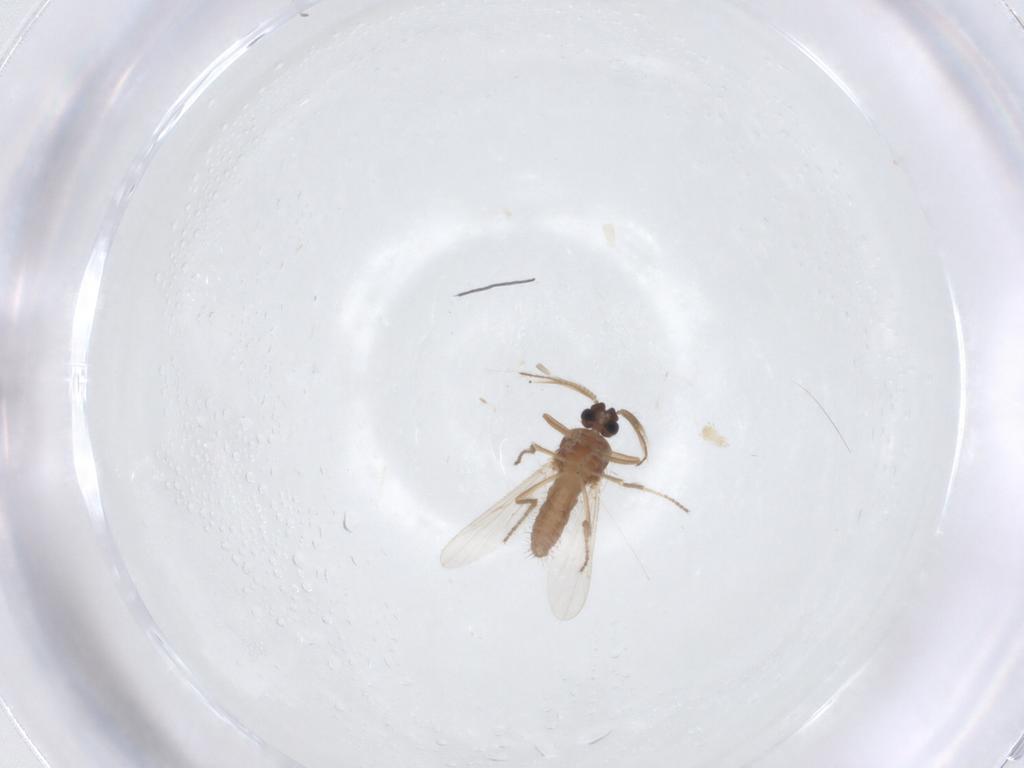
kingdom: Animalia
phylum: Arthropoda
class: Insecta
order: Diptera
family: Ceratopogonidae
